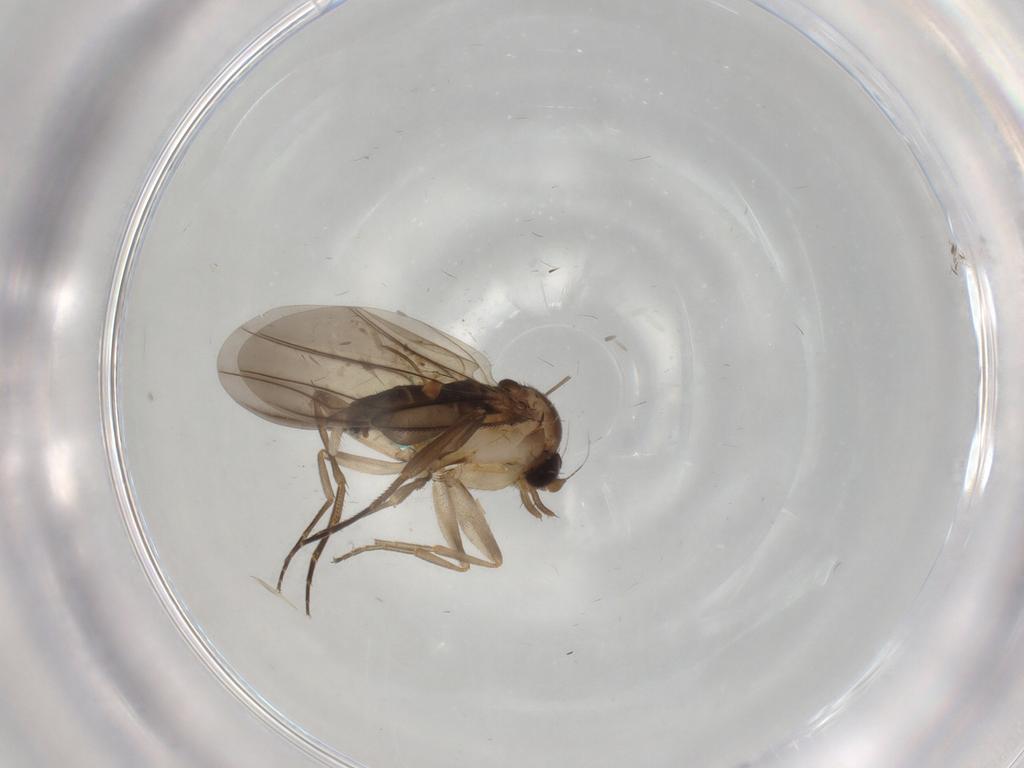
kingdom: Animalia
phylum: Arthropoda
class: Insecta
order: Diptera
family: Phoridae
